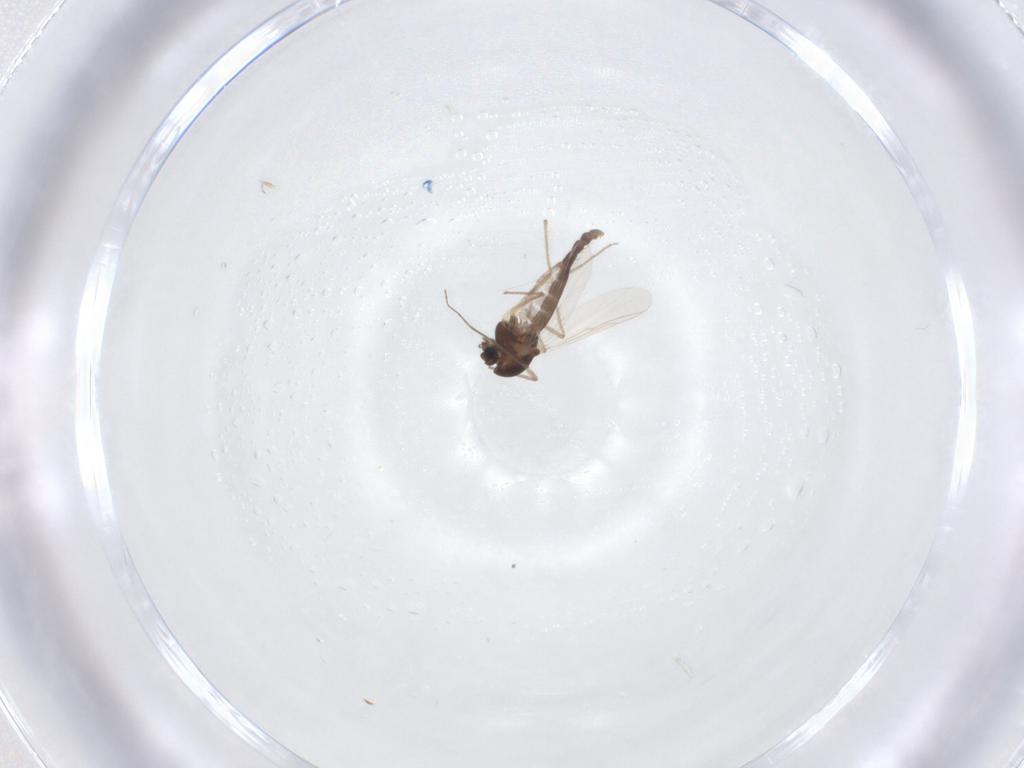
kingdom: Animalia
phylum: Arthropoda
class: Insecta
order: Diptera
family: Chironomidae
